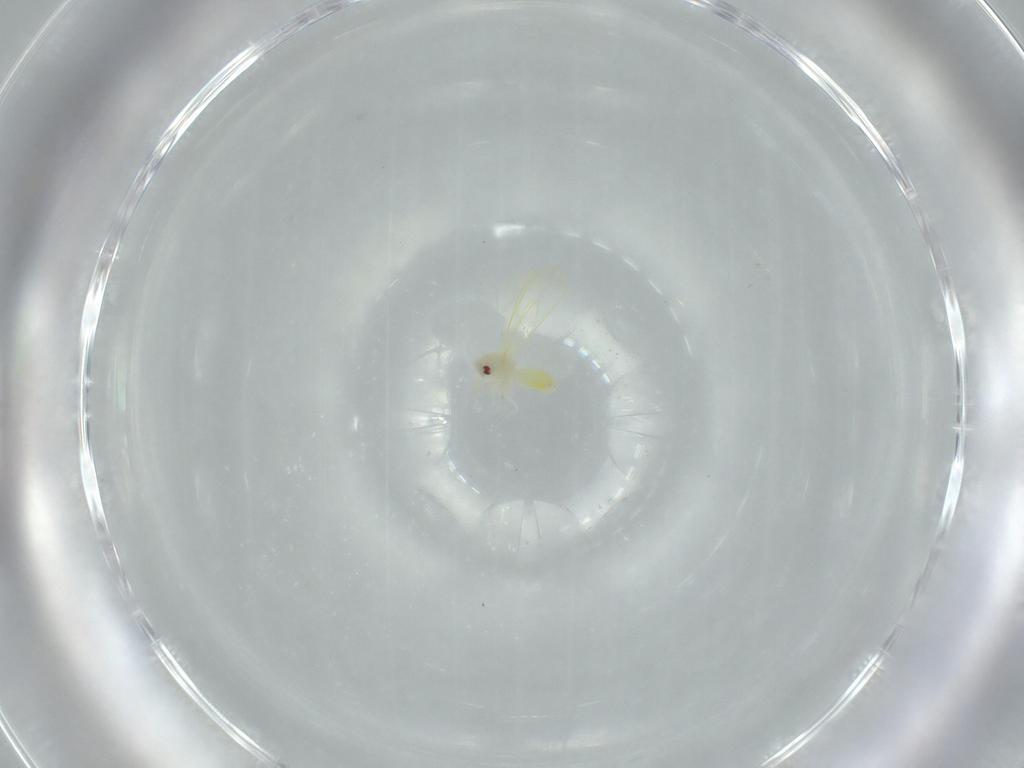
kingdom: Animalia
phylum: Arthropoda
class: Insecta
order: Hemiptera
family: Aleyrodidae
